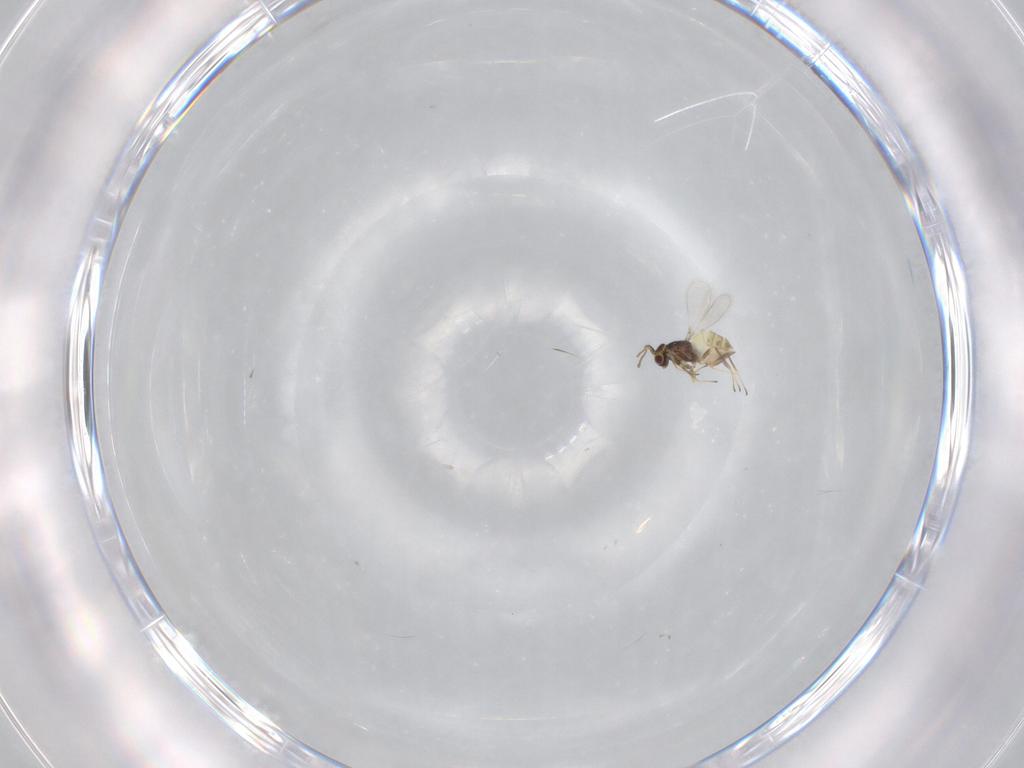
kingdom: Animalia
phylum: Arthropoda
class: Insecta
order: Hymenoptera
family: Mymaridae
